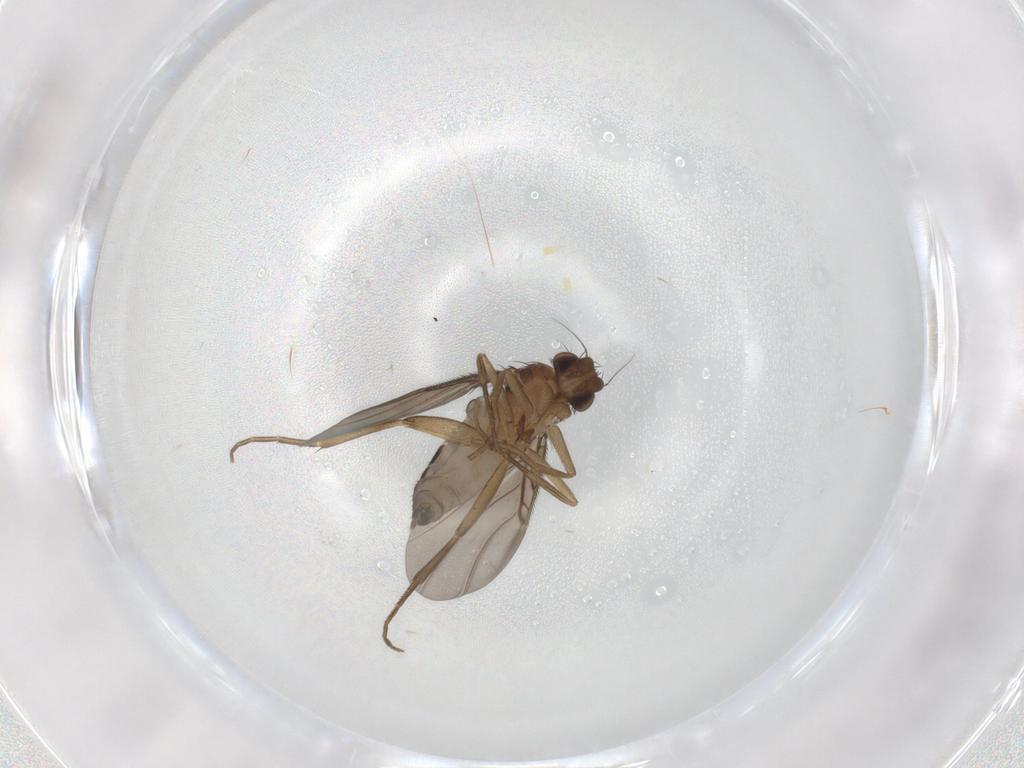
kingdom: Animalia
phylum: Arthropoda
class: Insecta
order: Diptera
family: Phoridae
